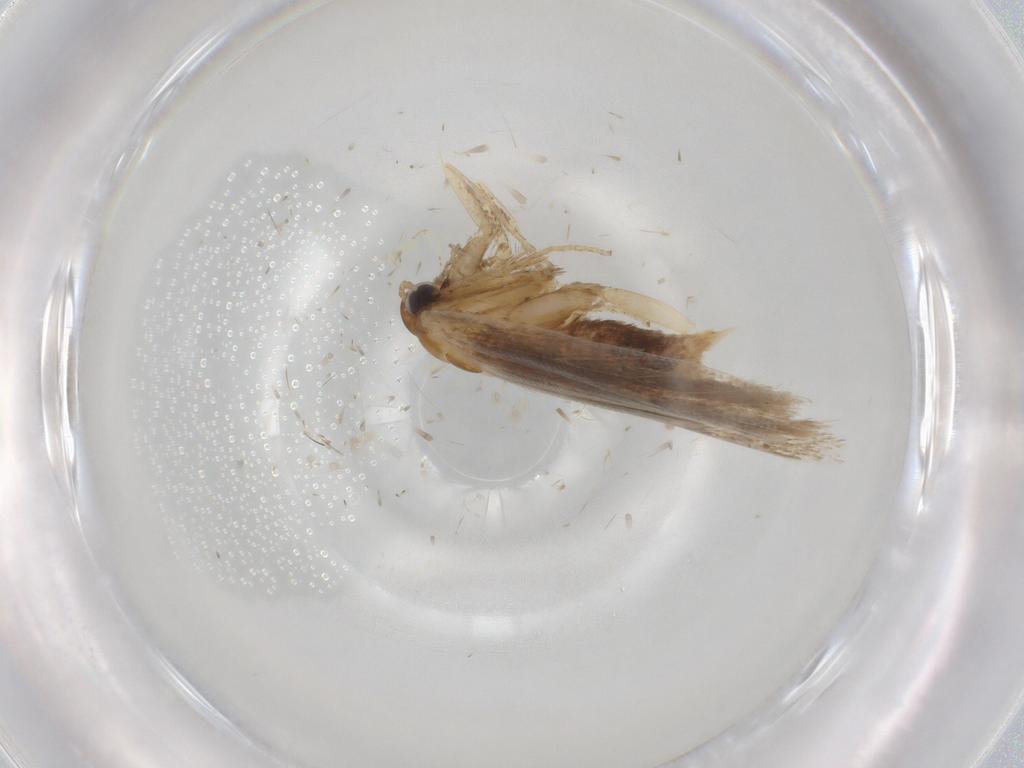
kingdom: Animalia
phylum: Arthropoda
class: Insecta
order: Lepidoptera
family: Gelechiidae
